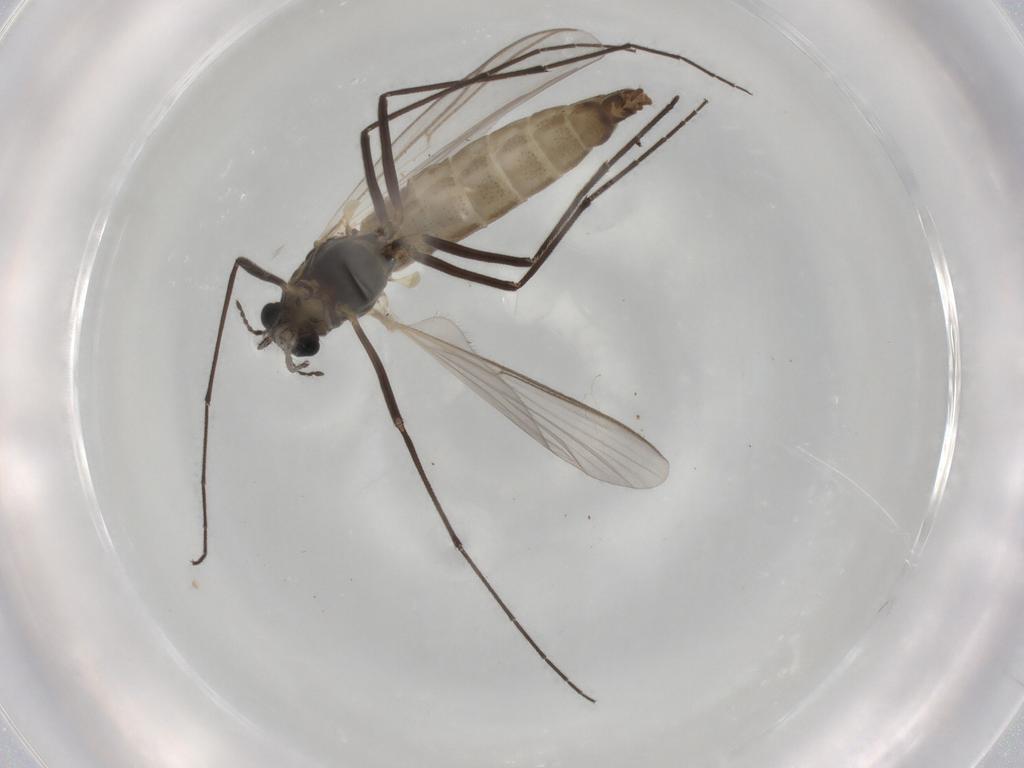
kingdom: Animalia
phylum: Arthropoda
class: Insecta
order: Diptera
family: Chironomidae
